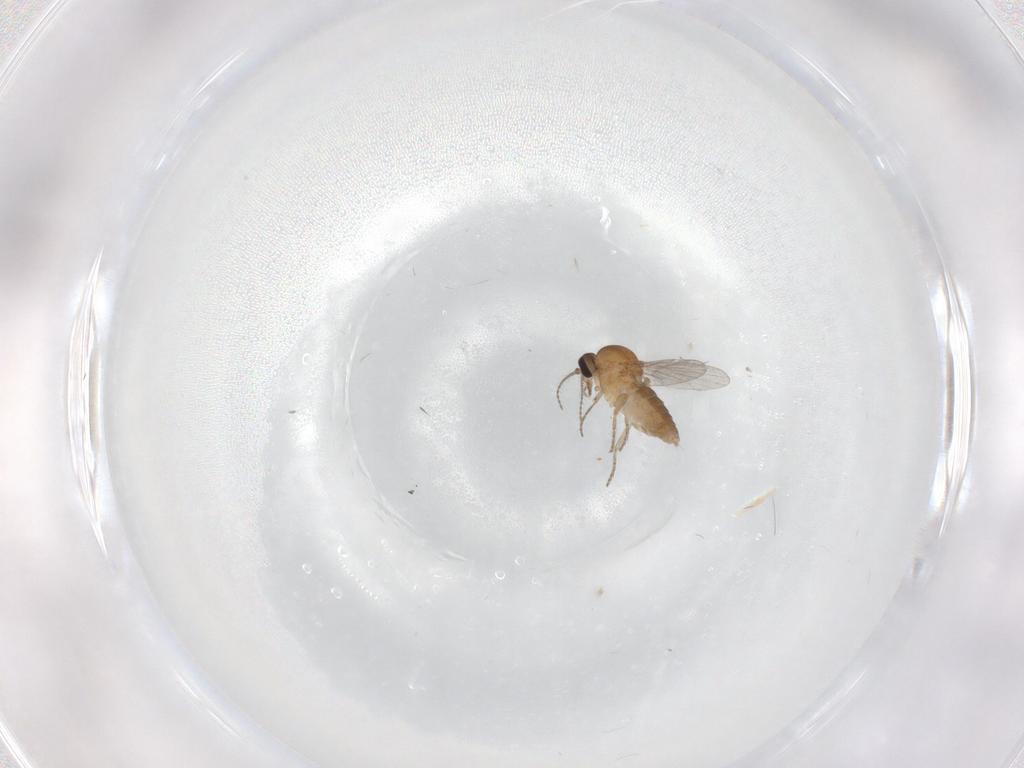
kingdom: Animalia
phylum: Arthropoda
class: Insecta
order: Diptera
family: Ceratopogonidae
